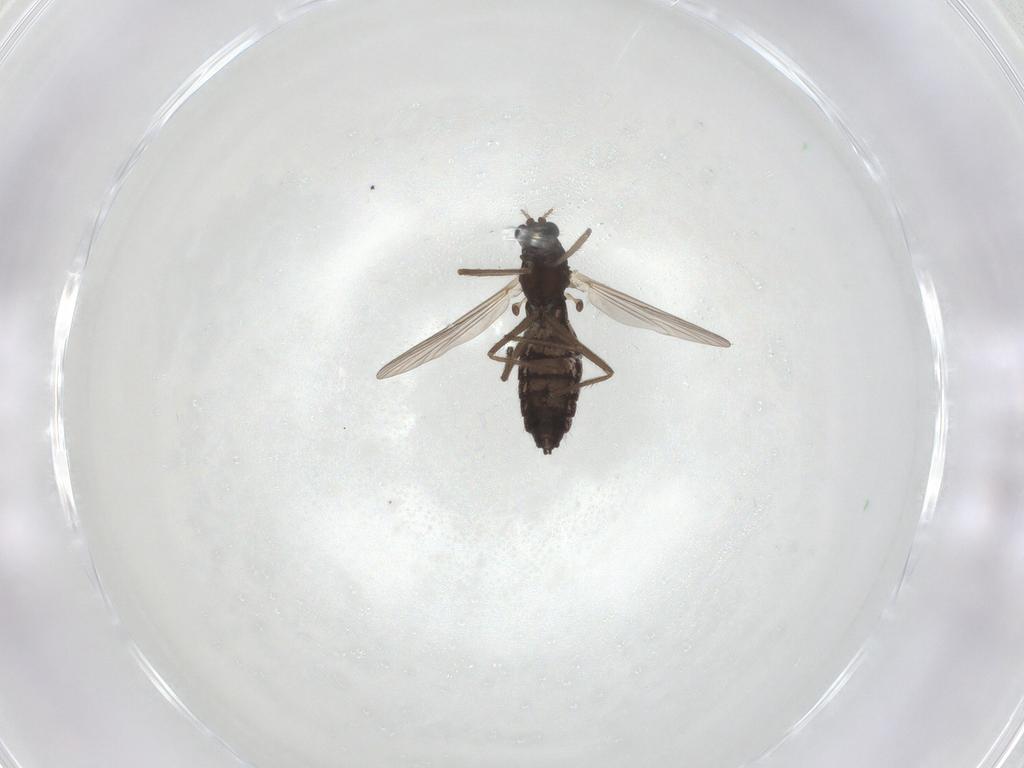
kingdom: Animalia
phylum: Arthropoda
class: Insecta
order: Diptera
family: Chironomidae
